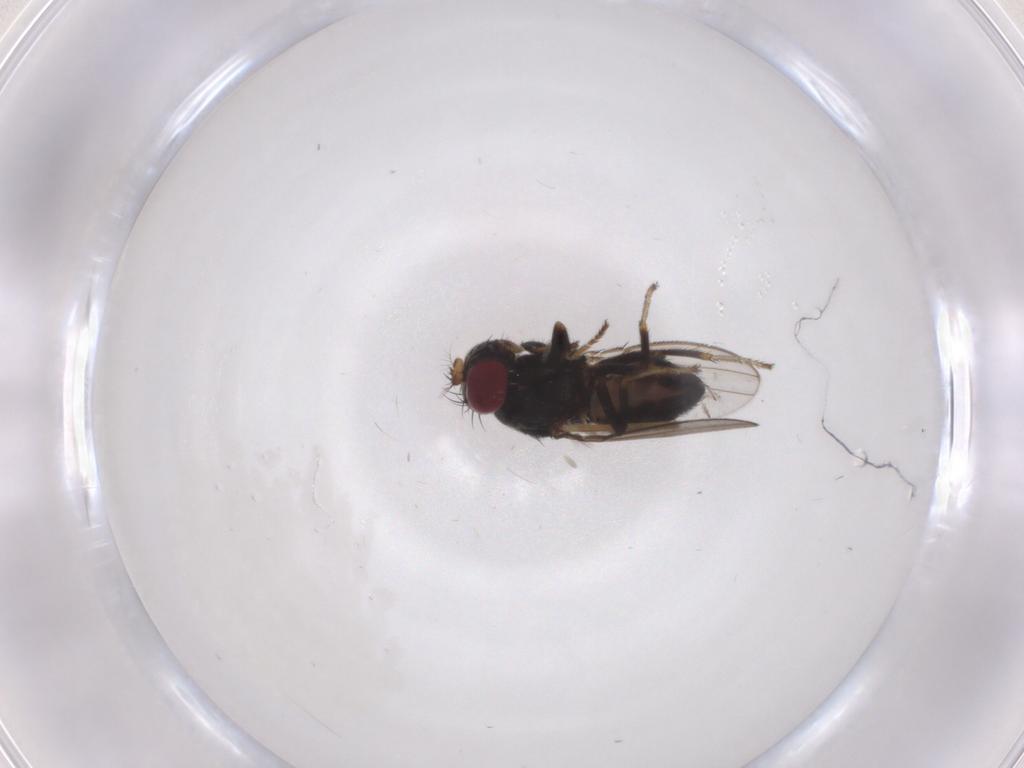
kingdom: Animalia
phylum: Arthropoda
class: Insecta
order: Diptera
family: Ephydridae
